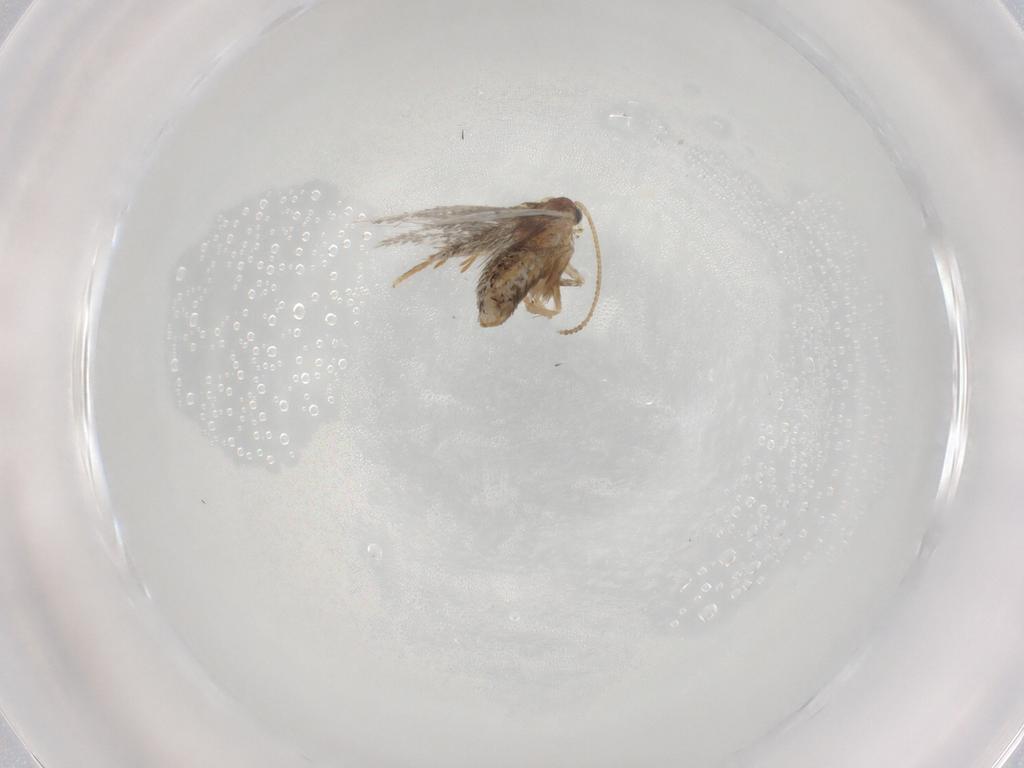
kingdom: Animalia
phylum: Arthropoda
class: Insecta
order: Lepidoptera
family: Nepticulidae
